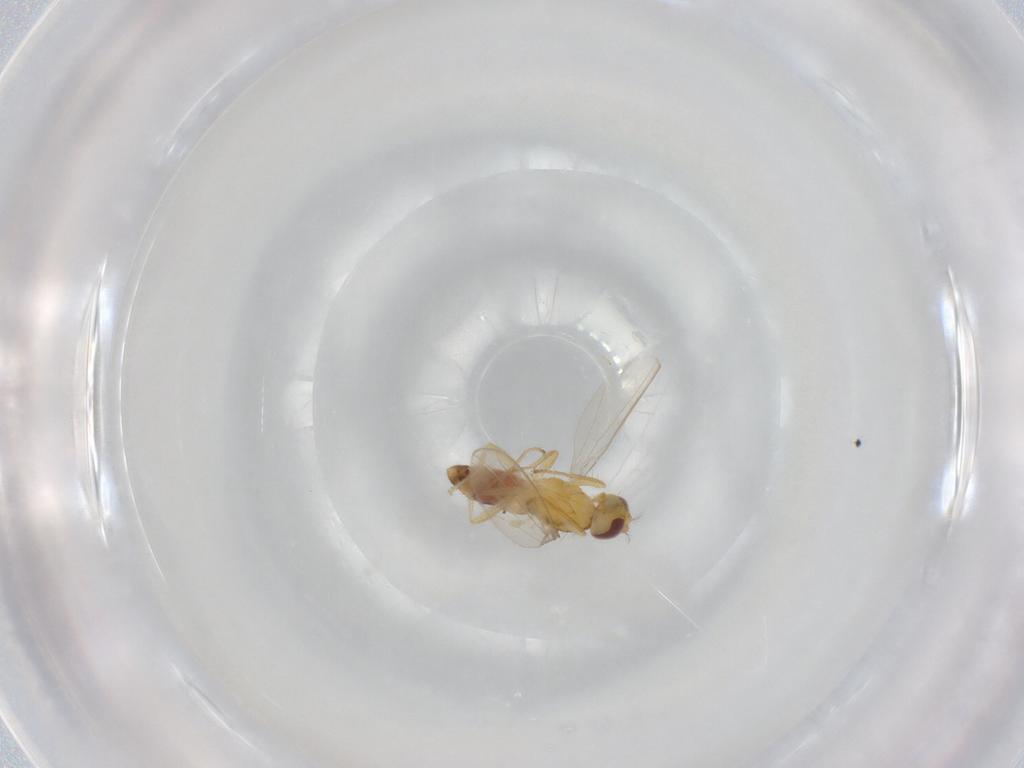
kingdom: Animalia
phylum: Arthropoda
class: Insecta
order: Diptera
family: Periscelididae
